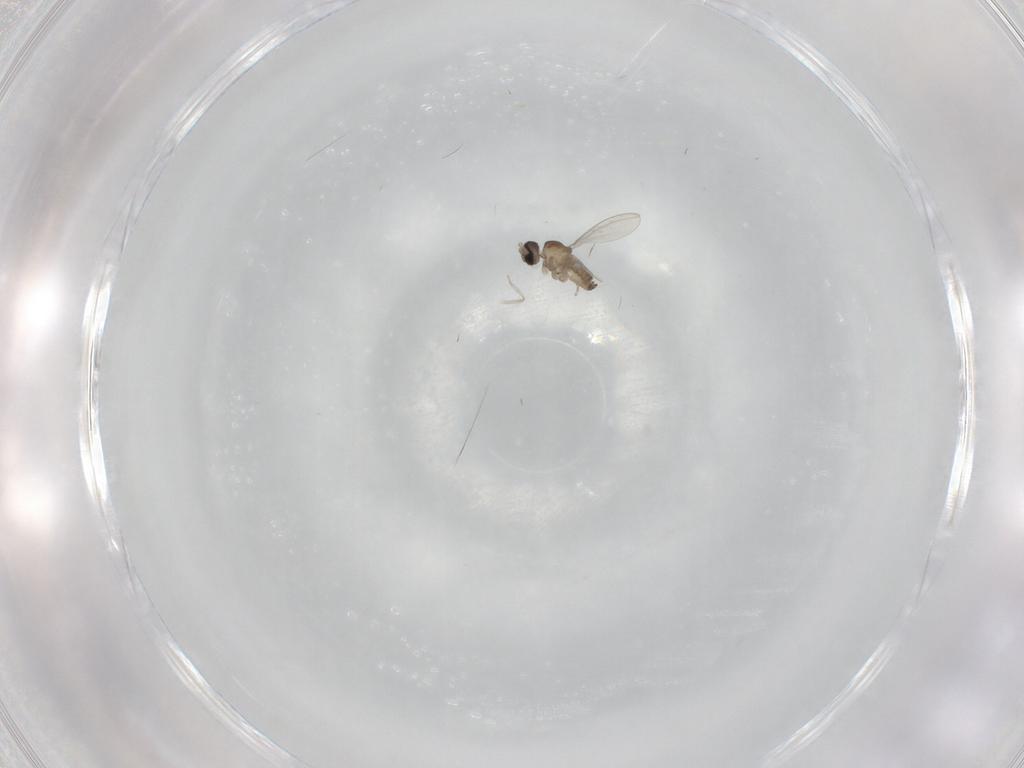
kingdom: Animalia
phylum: Arthropoda
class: Insecta
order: Diptera
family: Cecidomyiidae
